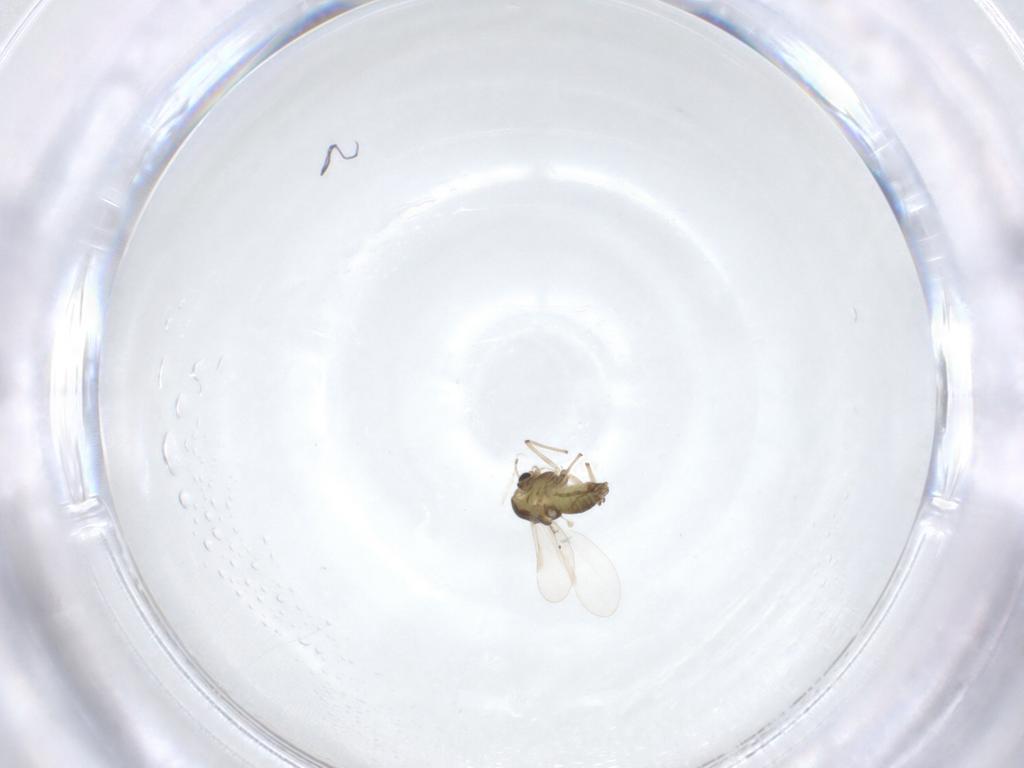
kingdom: Animalia
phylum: Arthropoda
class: Insecta
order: Diptera
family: Chironomidae
